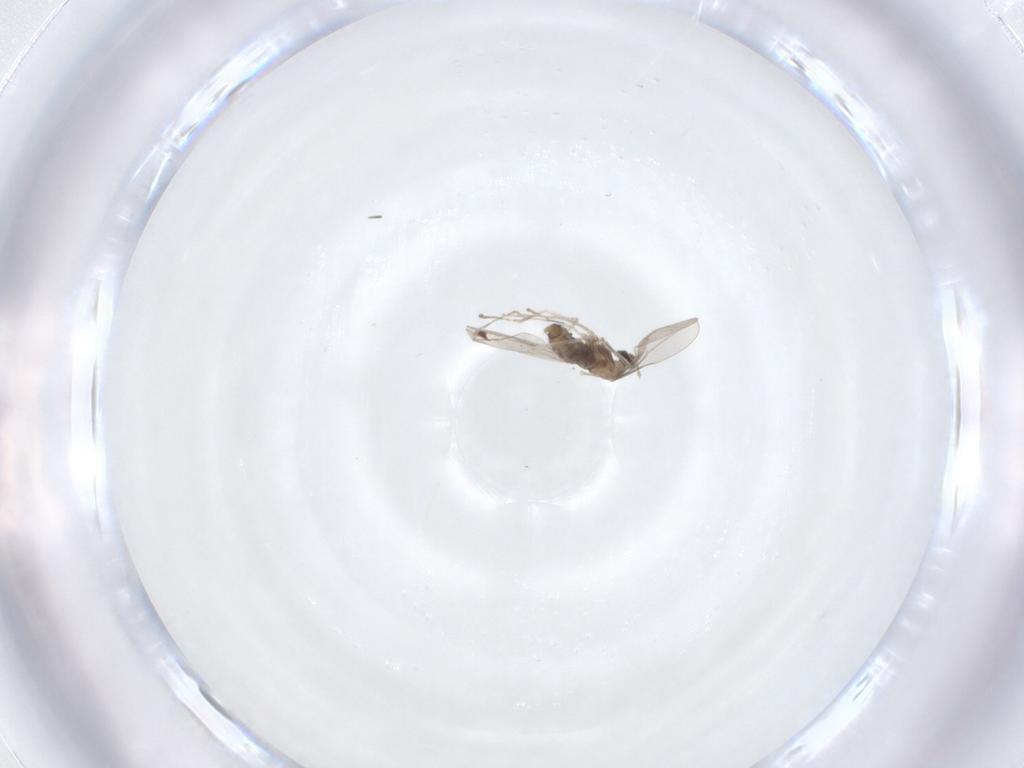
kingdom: Animalia
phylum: Arthropoda
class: Insecta
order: Diptera
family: Cecidomyiidae
